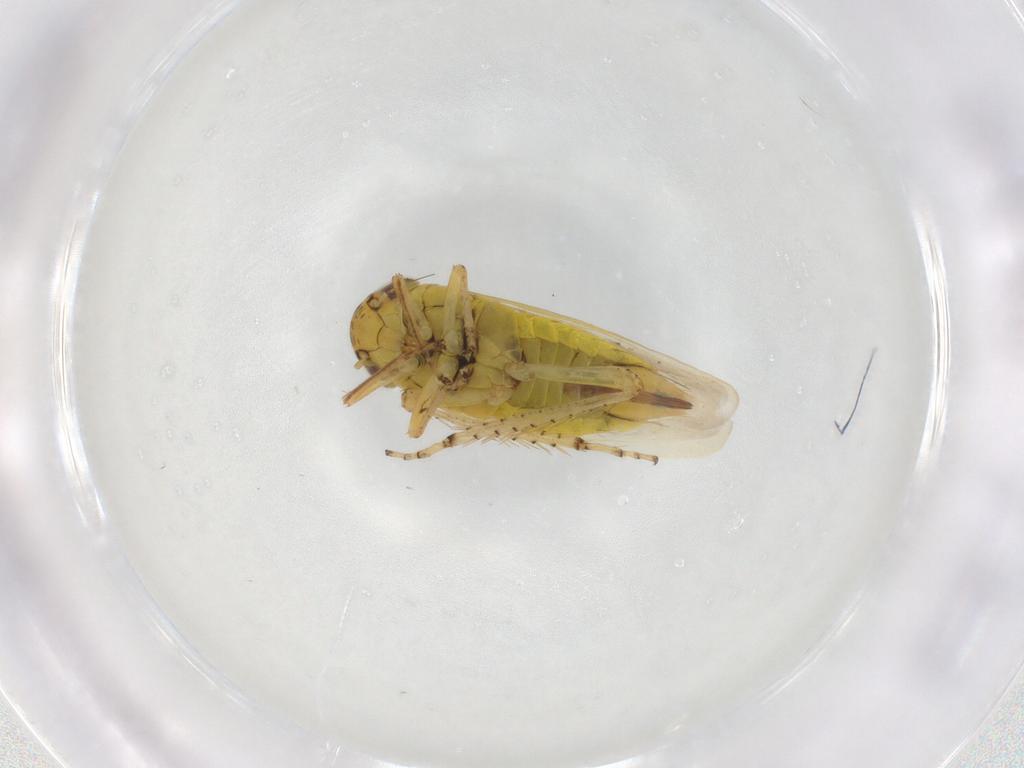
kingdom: Animalia
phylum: Arthropoda
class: Insecta
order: Hemiptera
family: Cicadellidae
